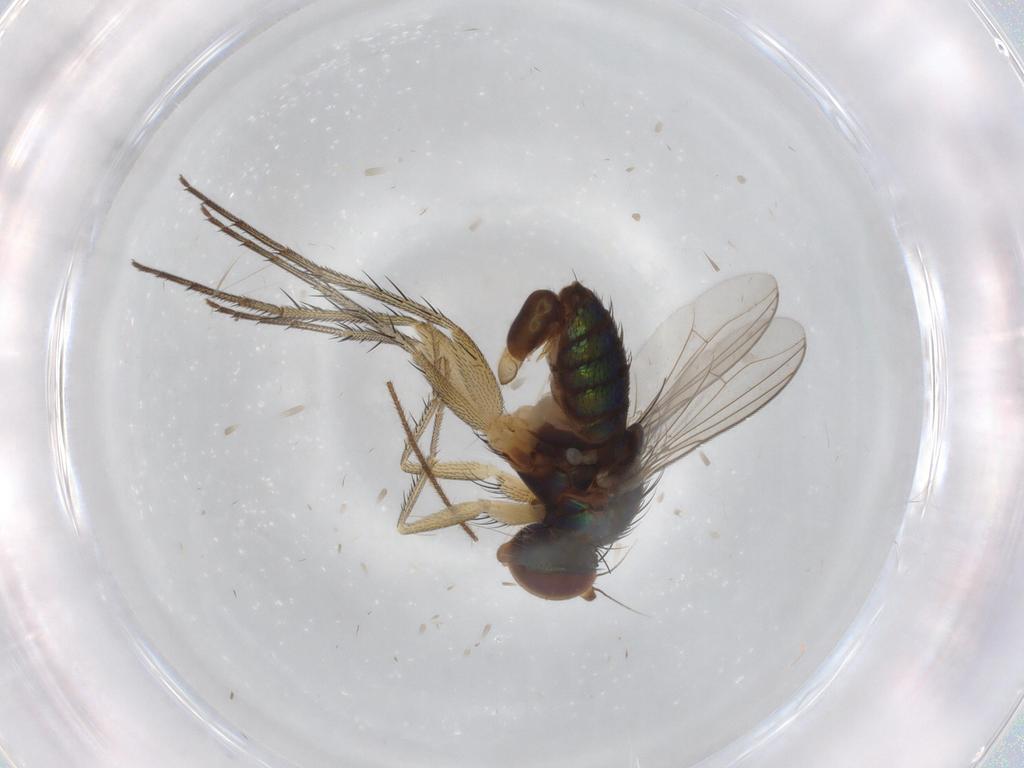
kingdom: Animalia
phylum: Arthropoda
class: Insecta
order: Diptera
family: Dolichopodidae
